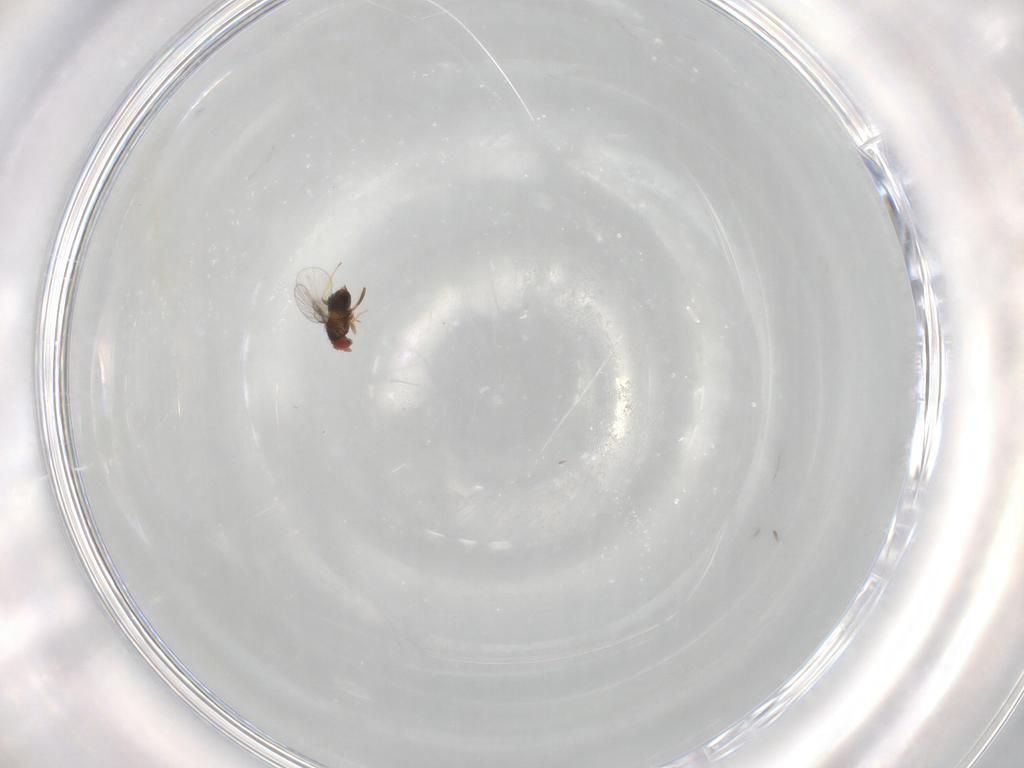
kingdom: Animalia
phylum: Arthropoda
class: Insecta
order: Hymenoptera
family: Trichogrammatidae
